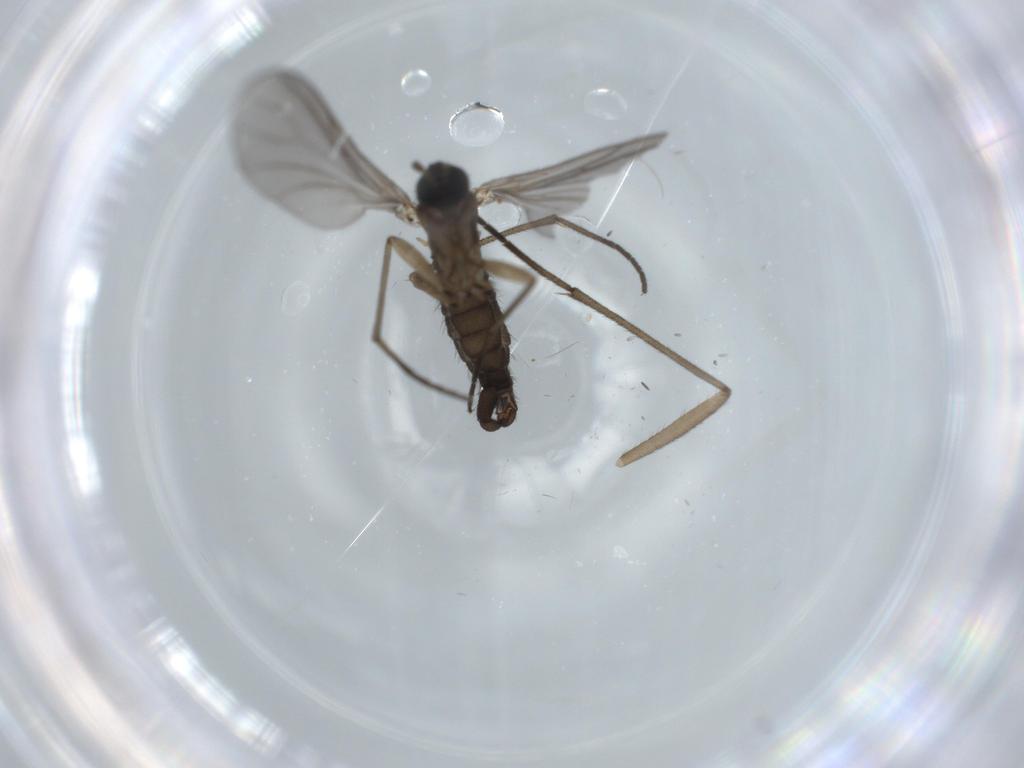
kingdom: Animalia
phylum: Arthropoda
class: Insecta
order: Diptera
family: Sciaridae
